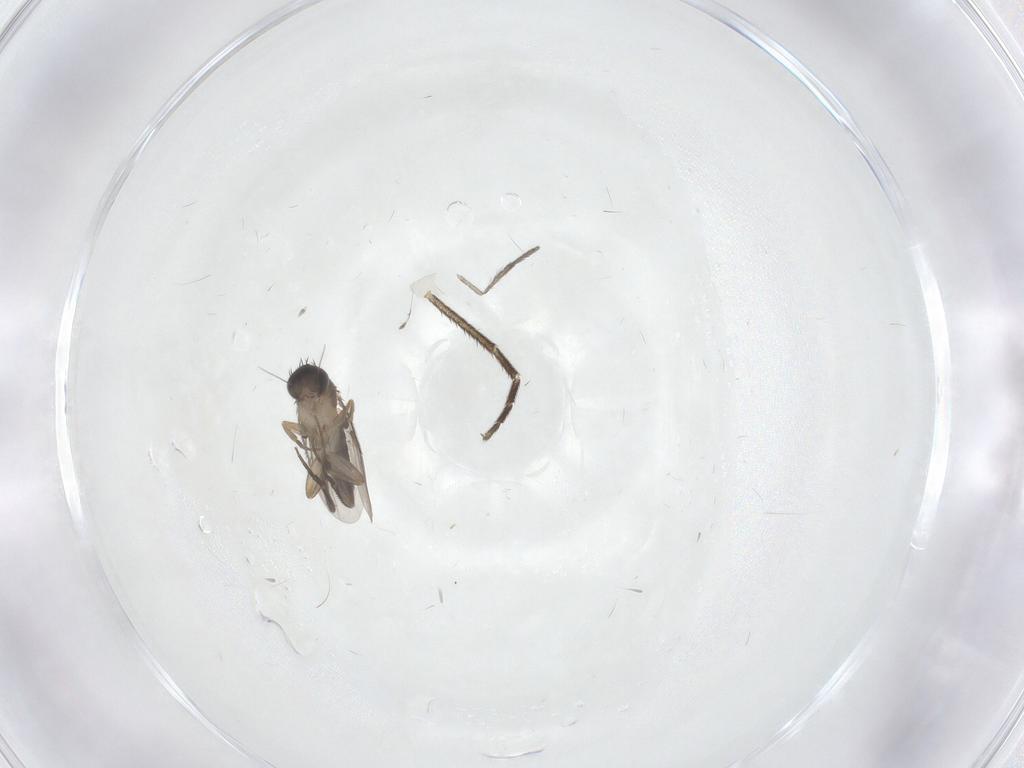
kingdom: Animalia
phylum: Arthropoda
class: Insecta
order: Diptera
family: Phoridae
